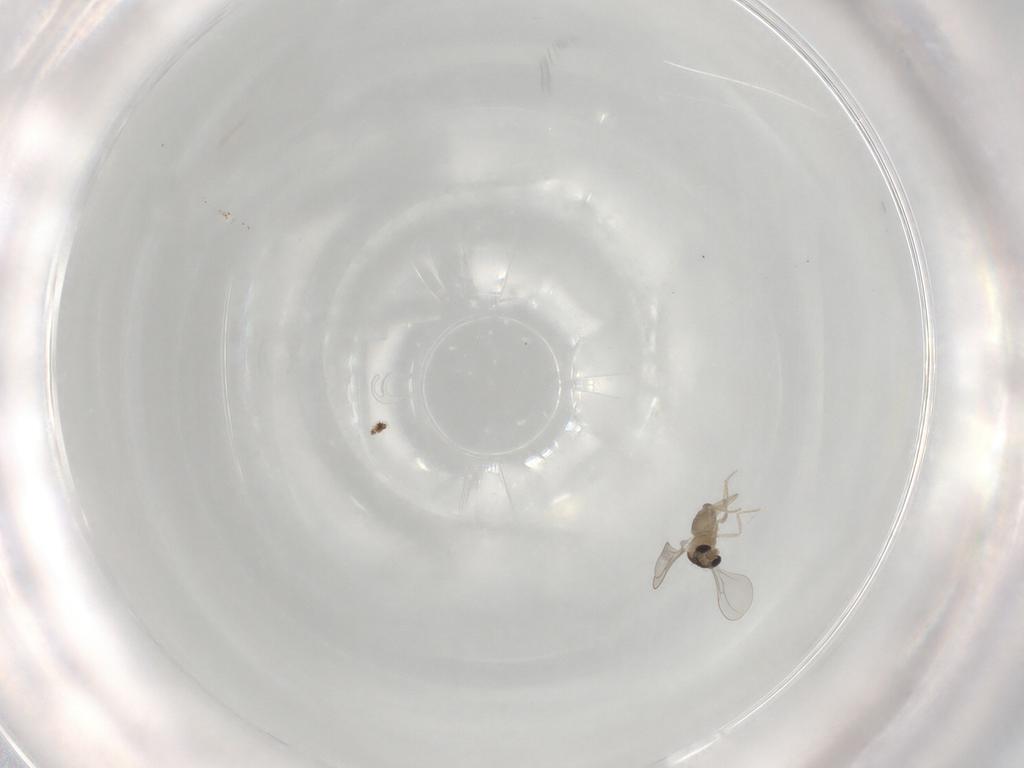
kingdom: Animalia
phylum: Arthropoda
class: Insecta
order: Diptera
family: Cecidomyiidae
